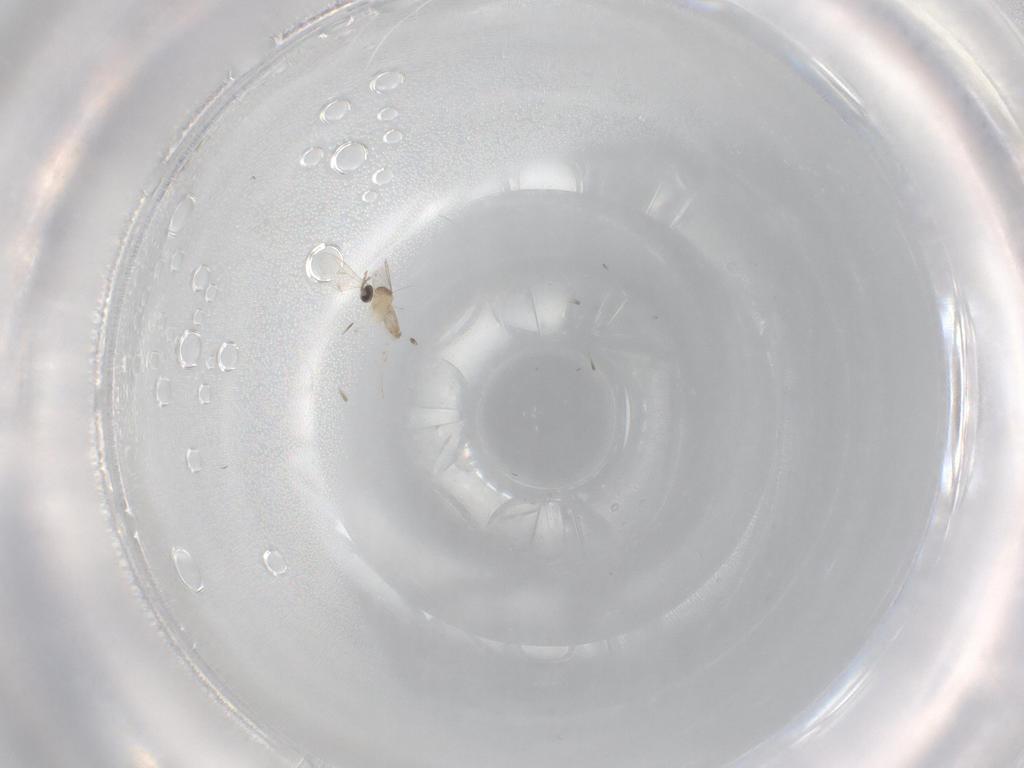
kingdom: Animalia
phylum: Arthropoda
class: Insecta
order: Diptera
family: Cecidomyiidae
